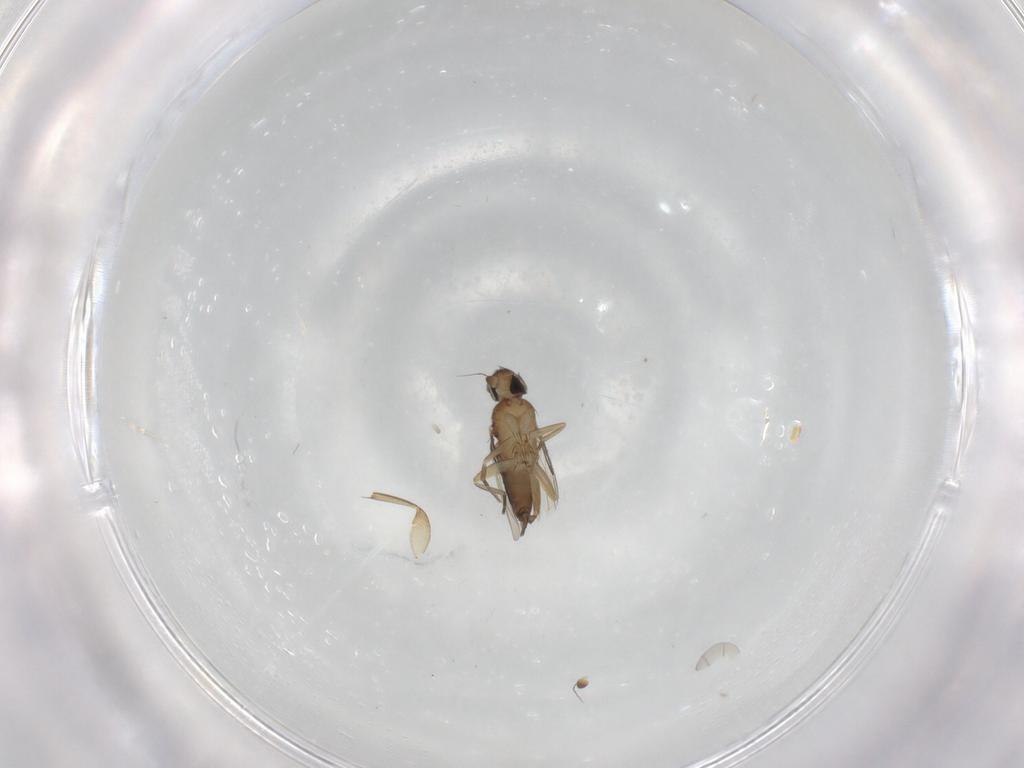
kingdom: Animalia
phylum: Arthropoda
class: Insecta
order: Diptera
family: Phoridae
